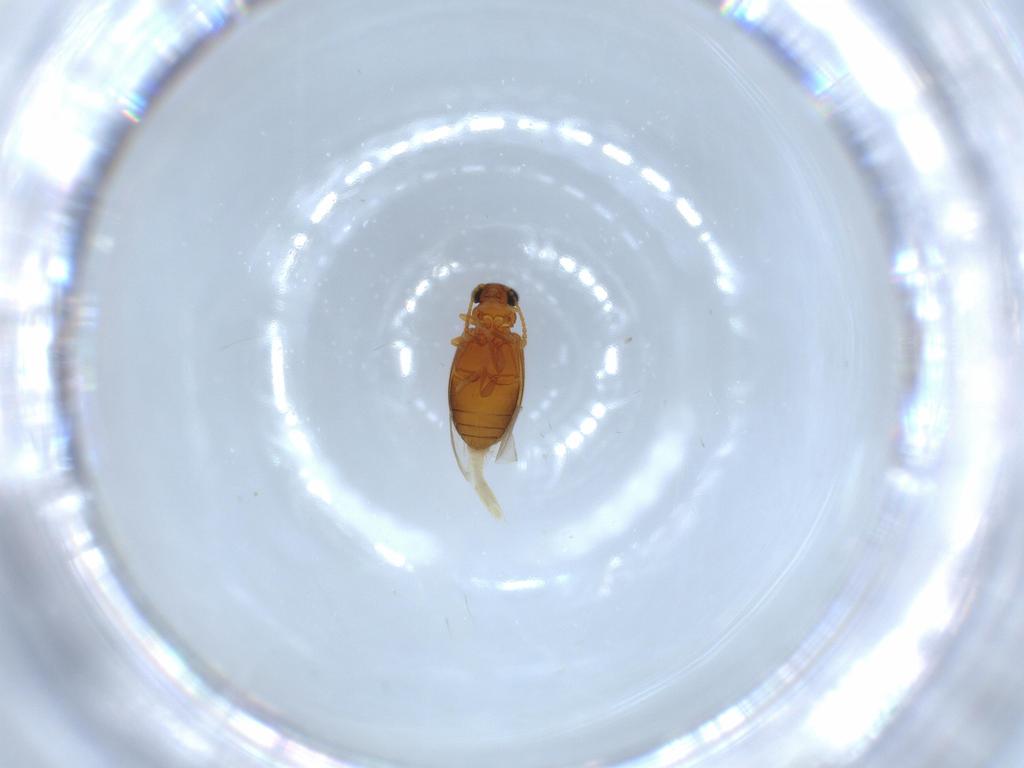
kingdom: Animalia
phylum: Arthropoda
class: Insecta
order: Coleoptera
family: Aderidae
